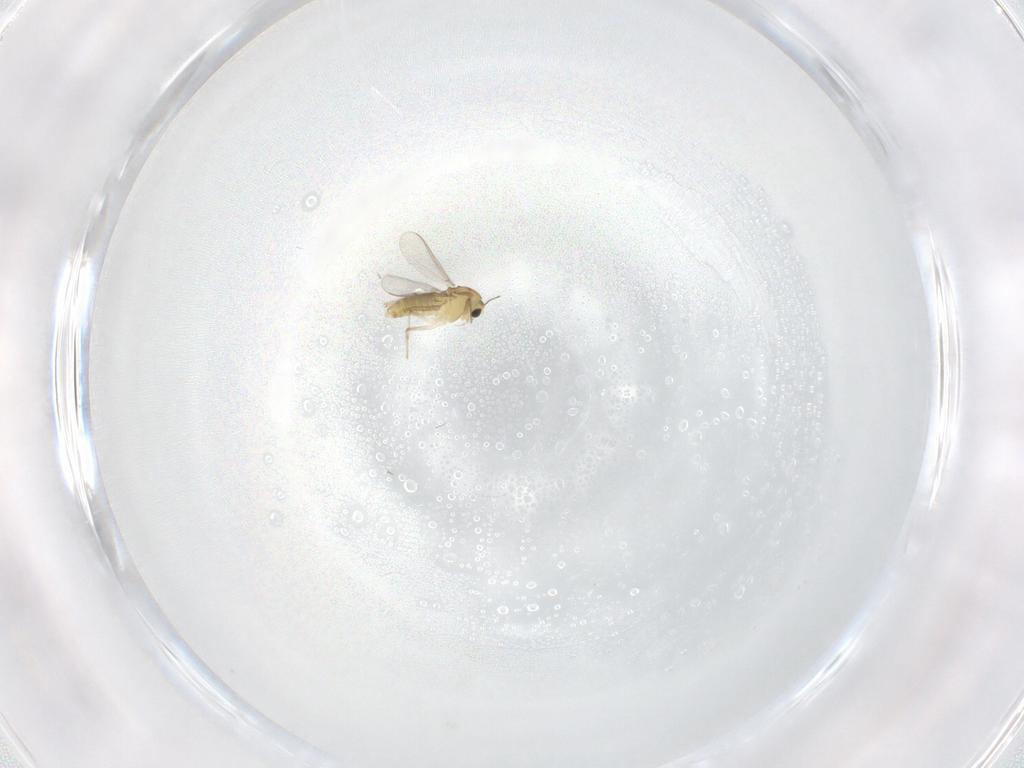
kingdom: Animalia
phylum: Arthropoda
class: Insecta
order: Diptera
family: Chironomidae
